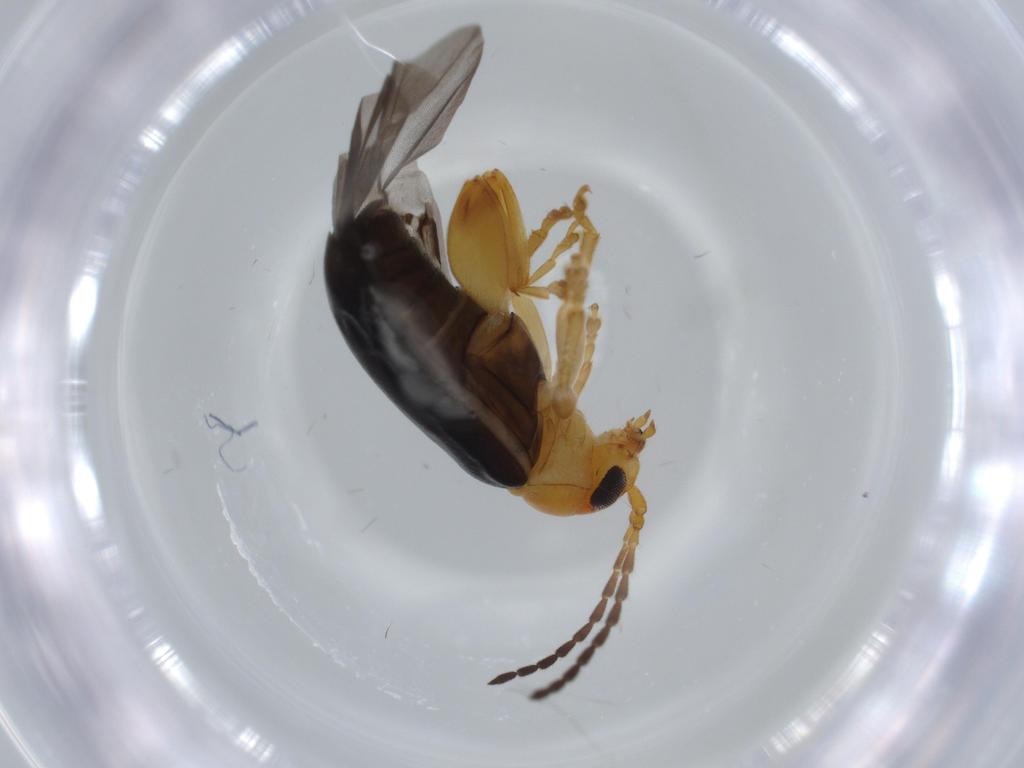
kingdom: Animalia
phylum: Arthropoda
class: Insecta
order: Coleoptera
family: Chrysomelidae
